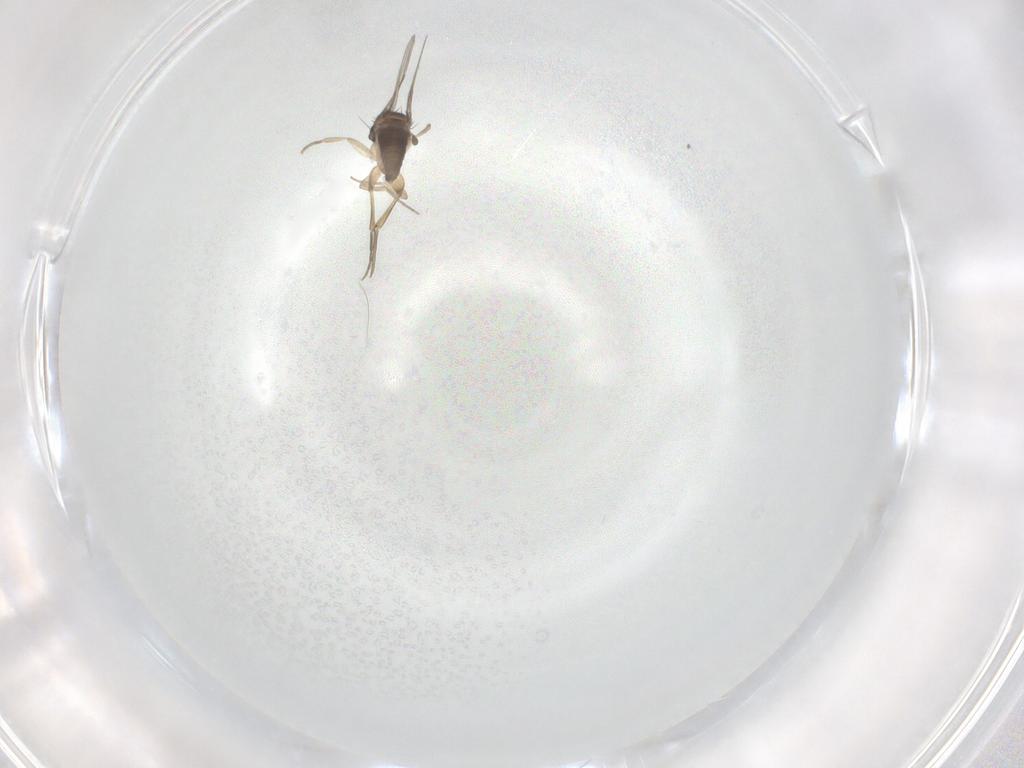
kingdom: Animalia
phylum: Arthropoda
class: Insecta
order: Diptera
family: Phoridae
